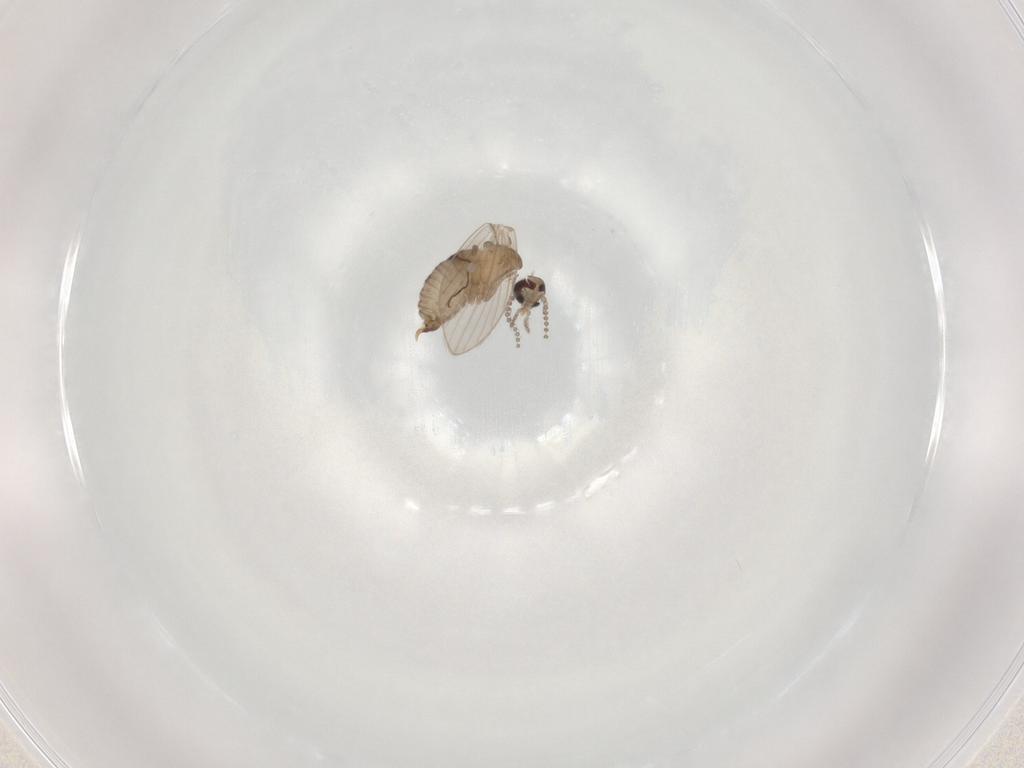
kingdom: Animalia
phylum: Arthropoda
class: Insecta
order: Diptera
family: Psychodidae
